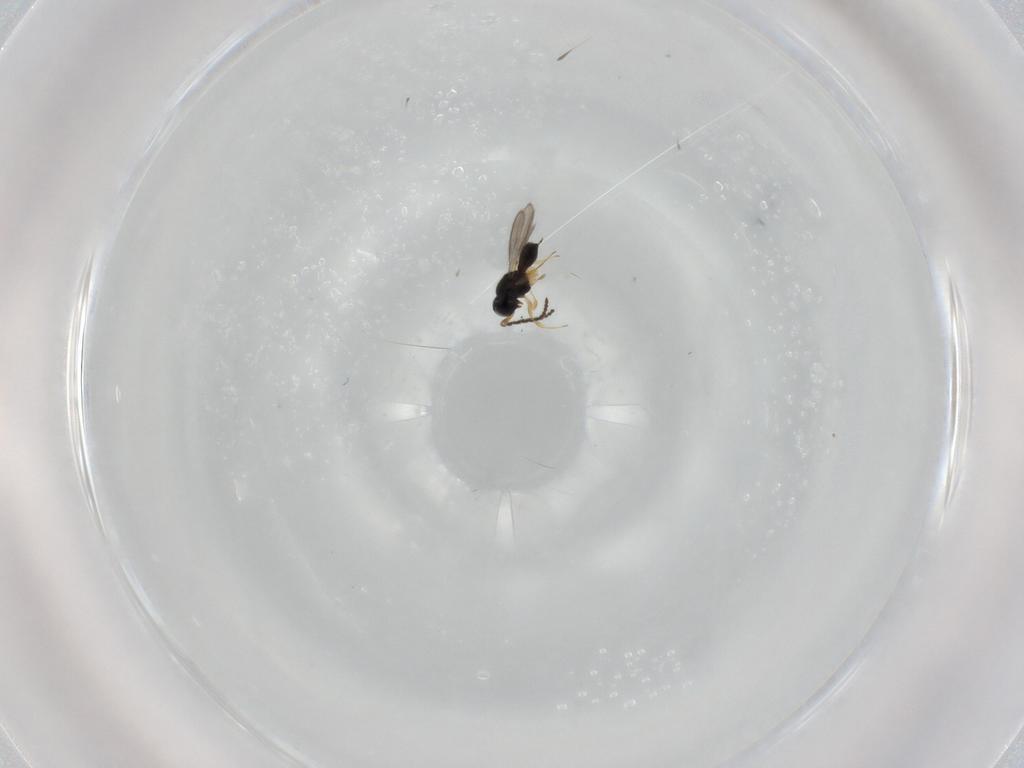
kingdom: Animalia
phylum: Arthropoda
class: Insecta
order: Hymenoptera
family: Scelionidae
